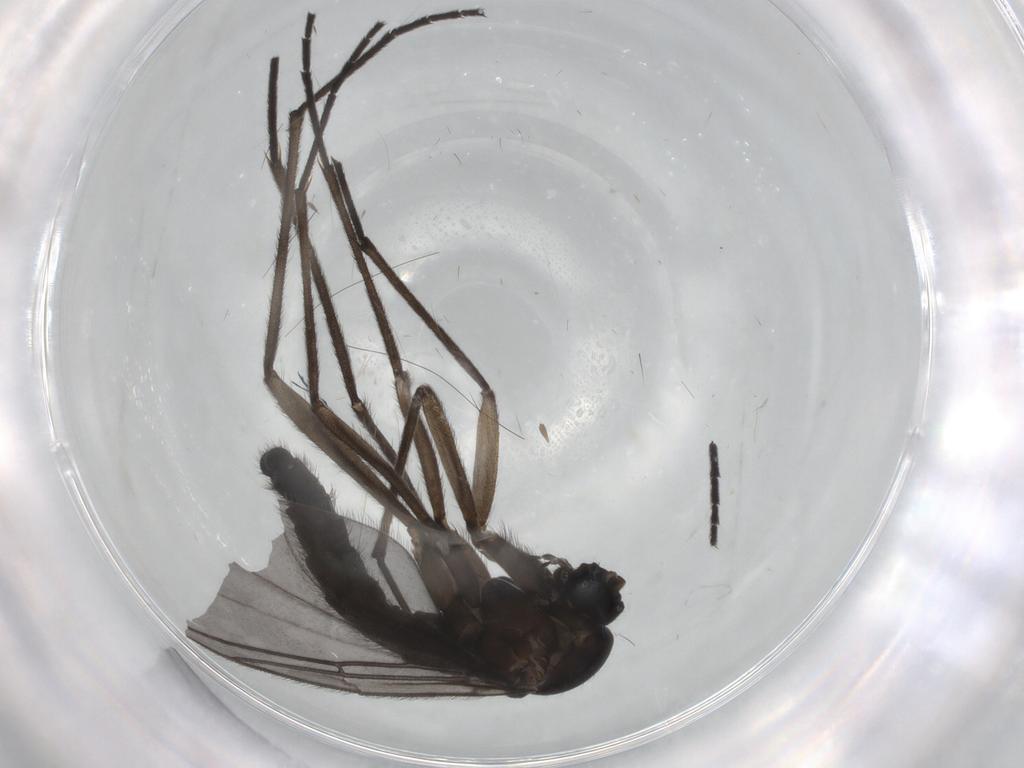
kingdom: Animalia
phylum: Arthropoda
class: Insecta
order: Diptera
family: Sciaridae
